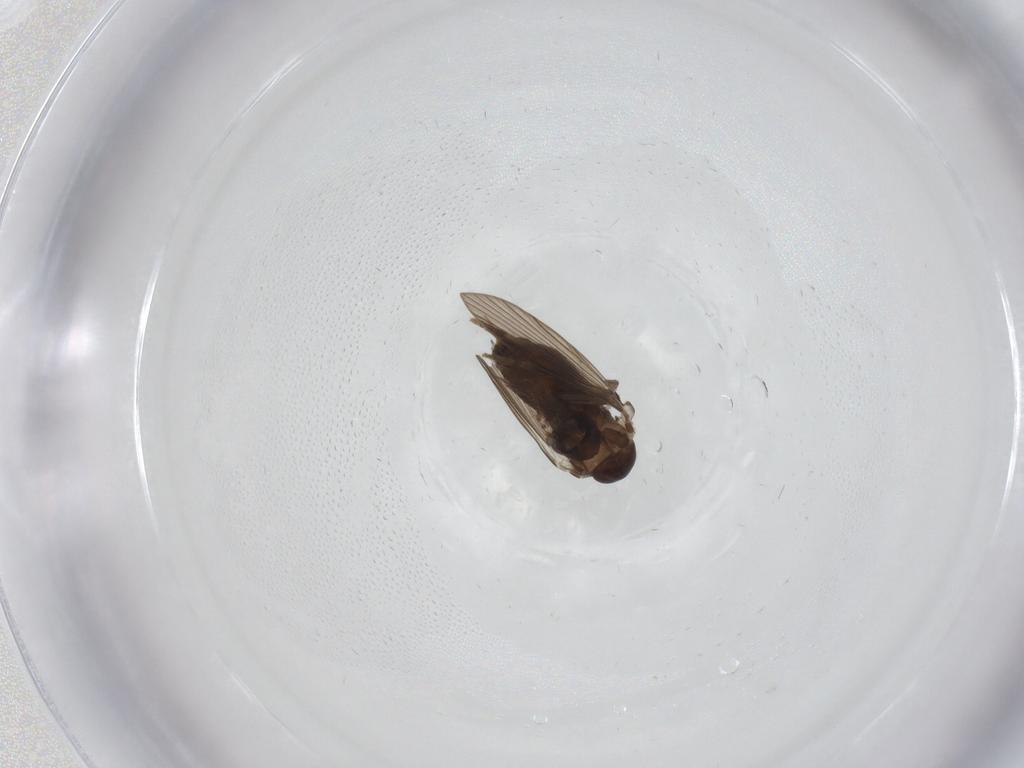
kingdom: Animalia
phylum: Arthropoda
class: Insecta
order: Diptera
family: Psychodidae
